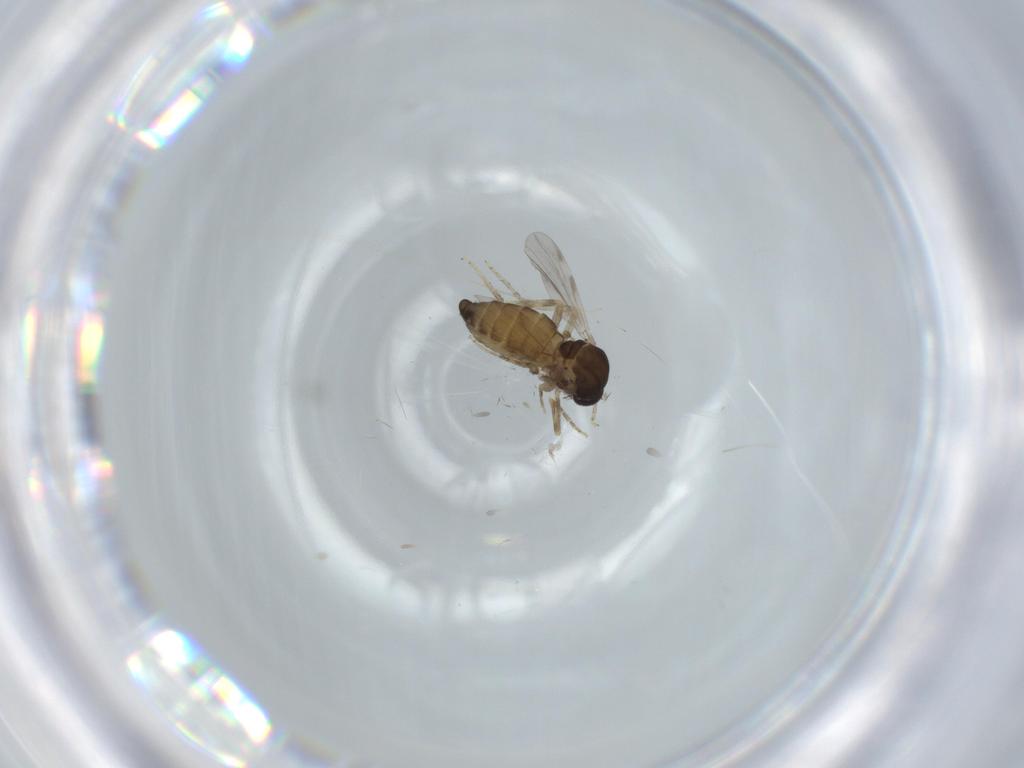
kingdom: Animalia
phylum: Arthropoda
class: Insecta
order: Diptera
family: Ceratopogonidae
